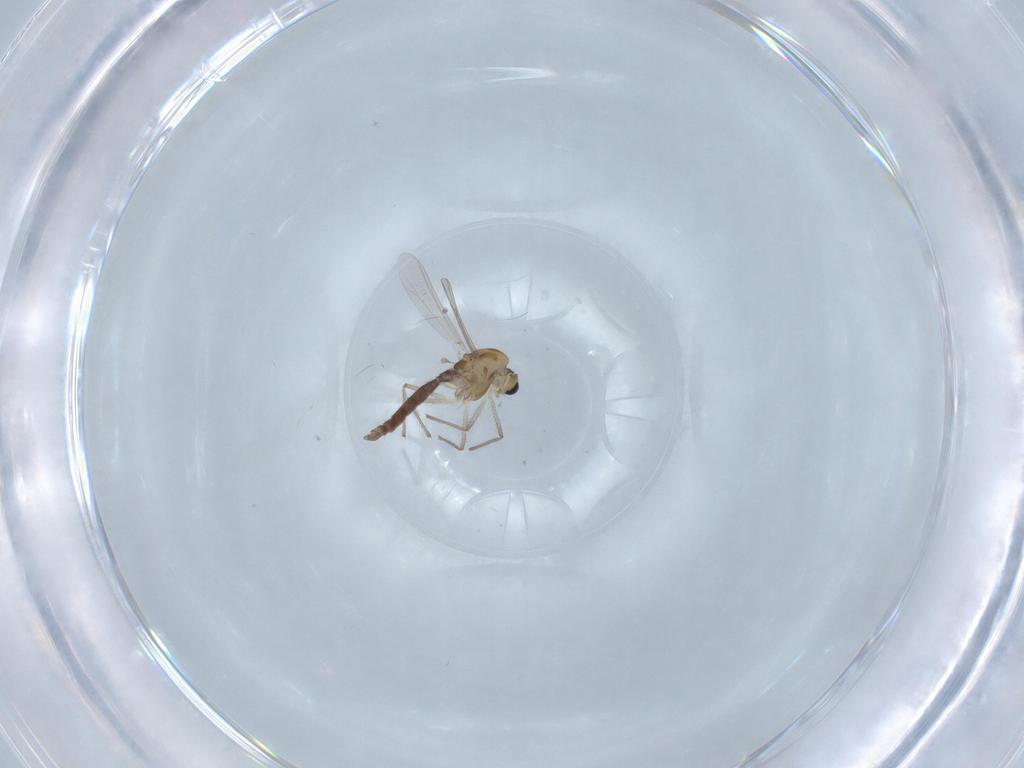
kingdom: Animalia
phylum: Arthropoda
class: Insecta
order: Diptera
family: Chironomidae
